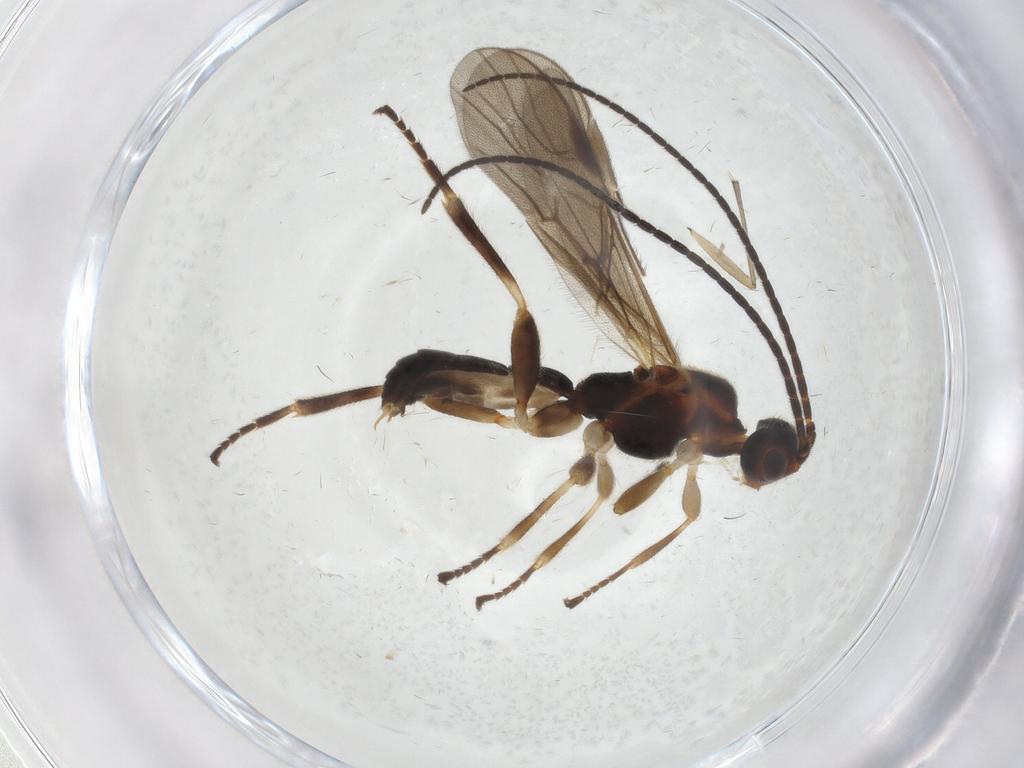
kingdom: Animalia
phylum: Arthropoda
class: Insecta
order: Hymenoptera
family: Braconidae
